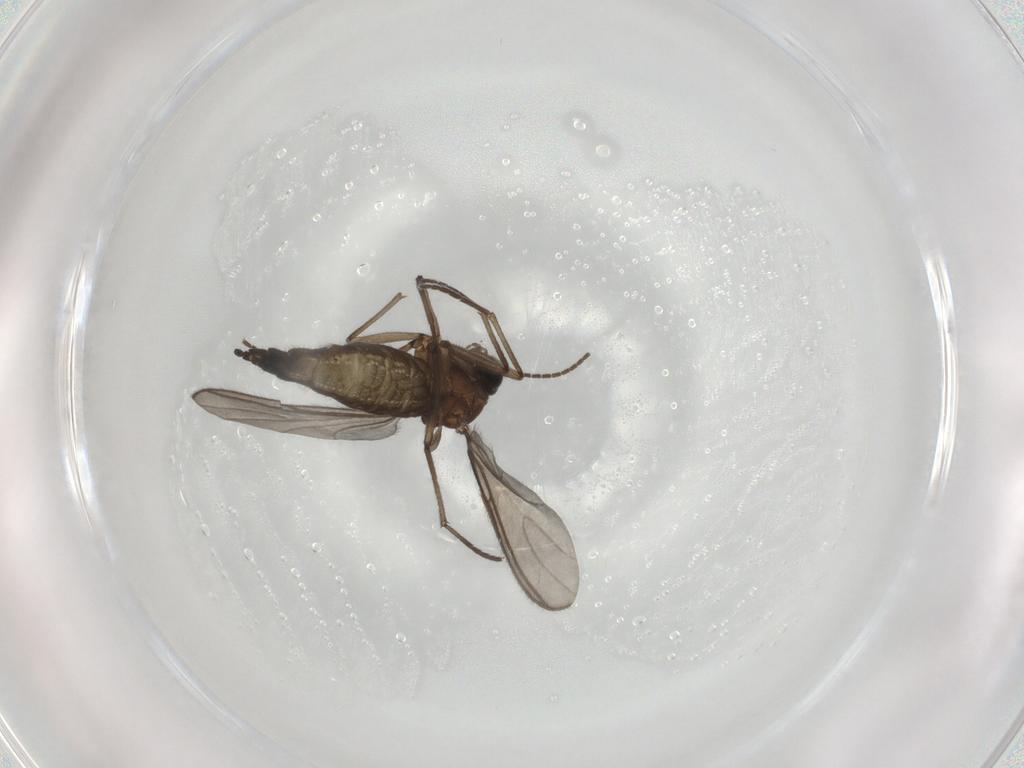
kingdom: Animalia
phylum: Arthropoda
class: Insecta
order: Diptera
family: Sciaridae
